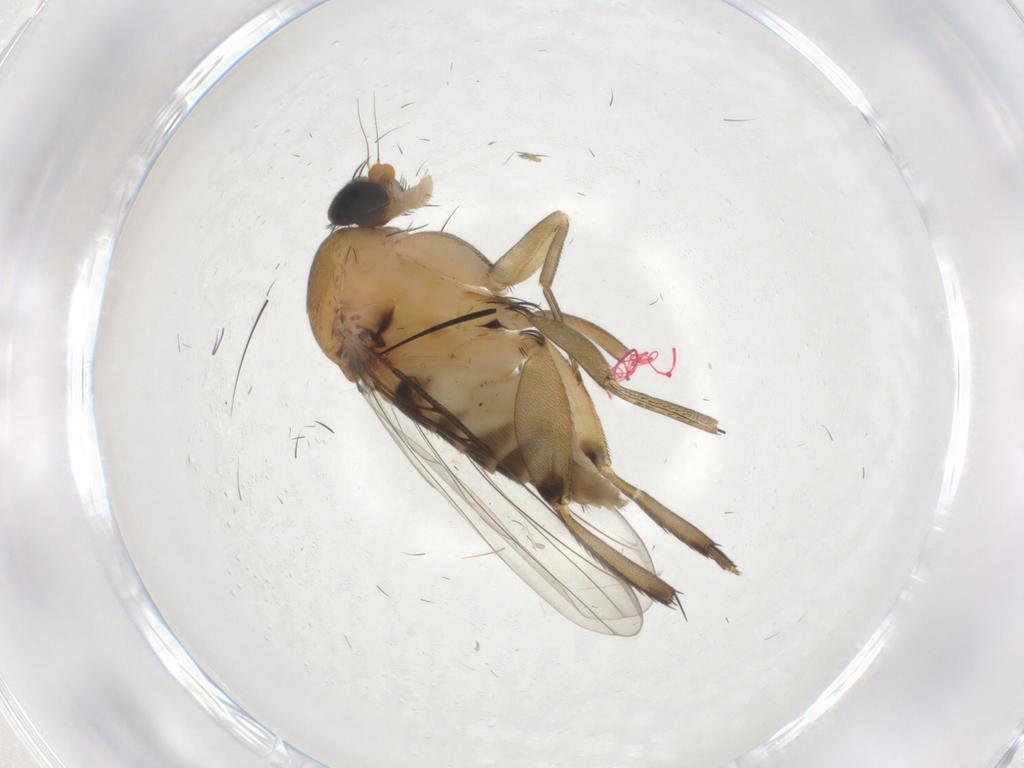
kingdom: Animalia
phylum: Arthropoda
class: Insecta
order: Diptera
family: Phoridae
